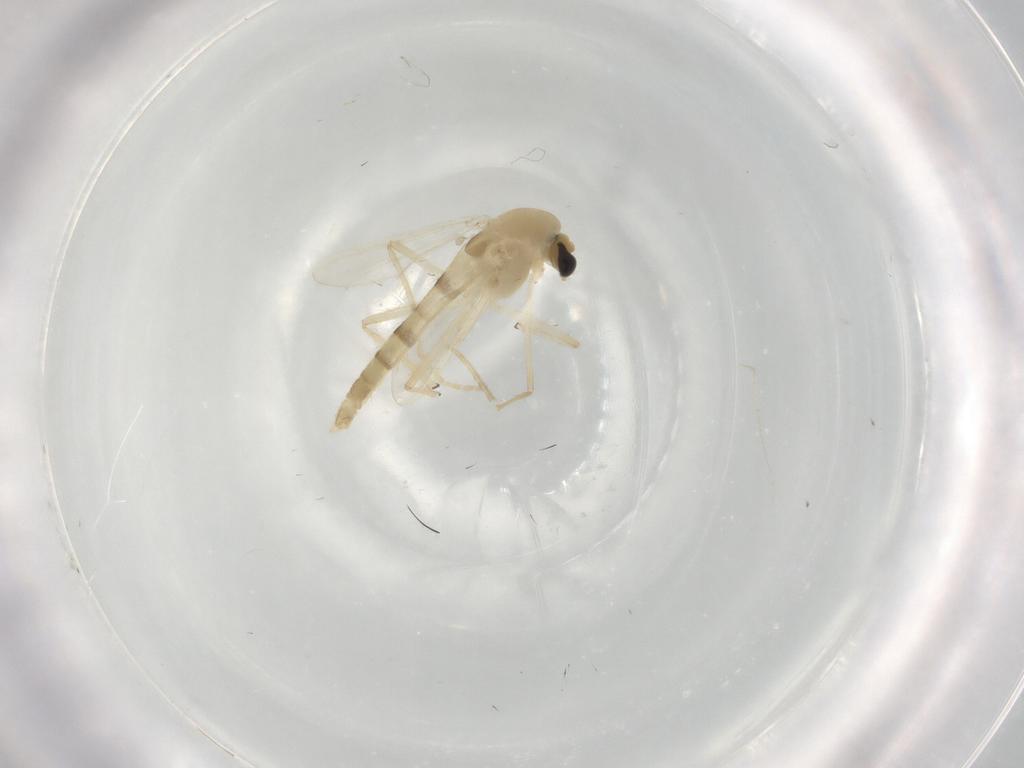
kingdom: Animalia
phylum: Arthropoda
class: Insecta
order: Diptera
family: Chironomidae
